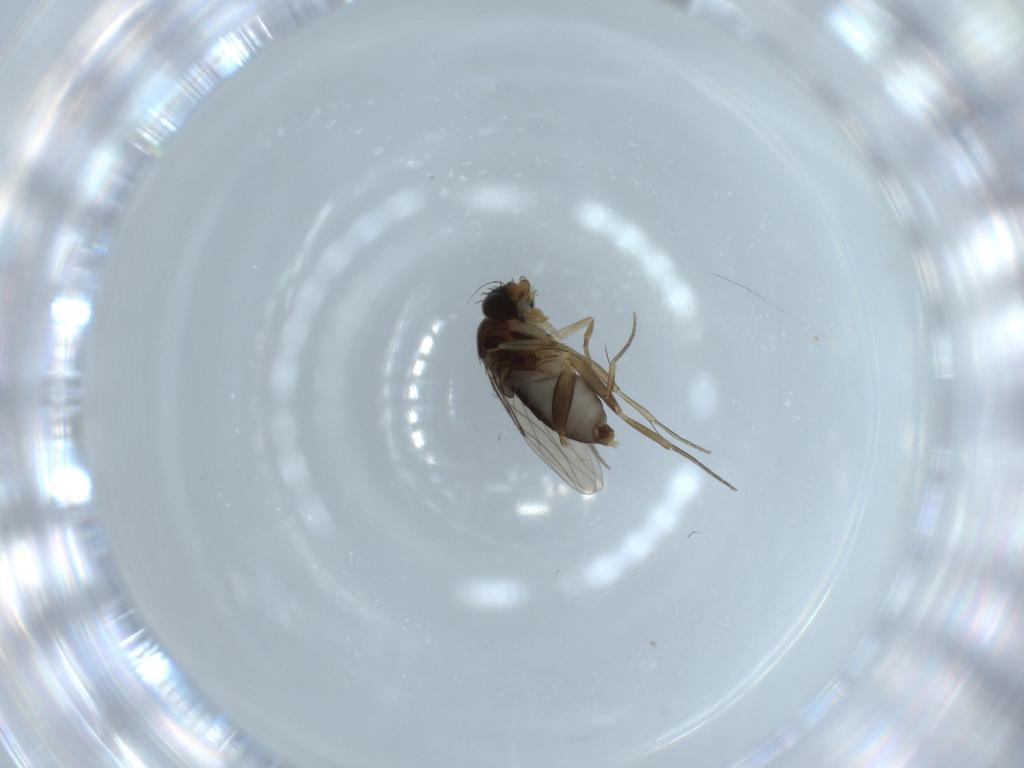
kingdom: Animalia
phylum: Arthropoda
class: Insecta
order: Diptera
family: Phoridae
